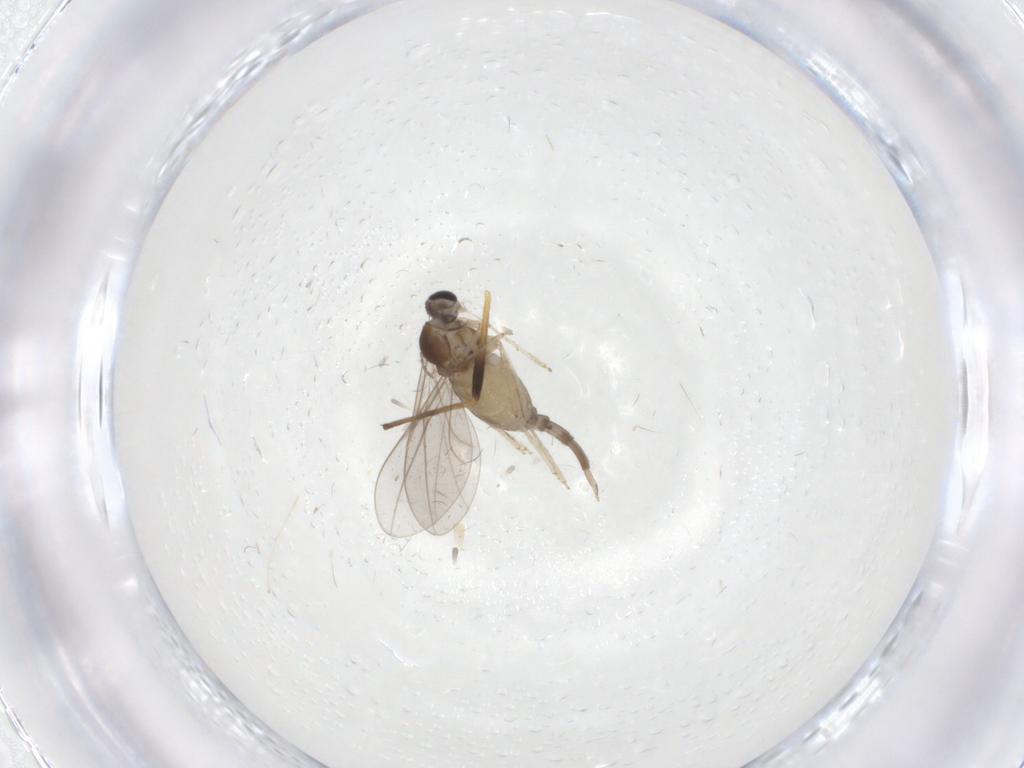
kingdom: Animalia
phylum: Arthropoda
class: Insecta
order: Diptera
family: Cecidomyiidae
